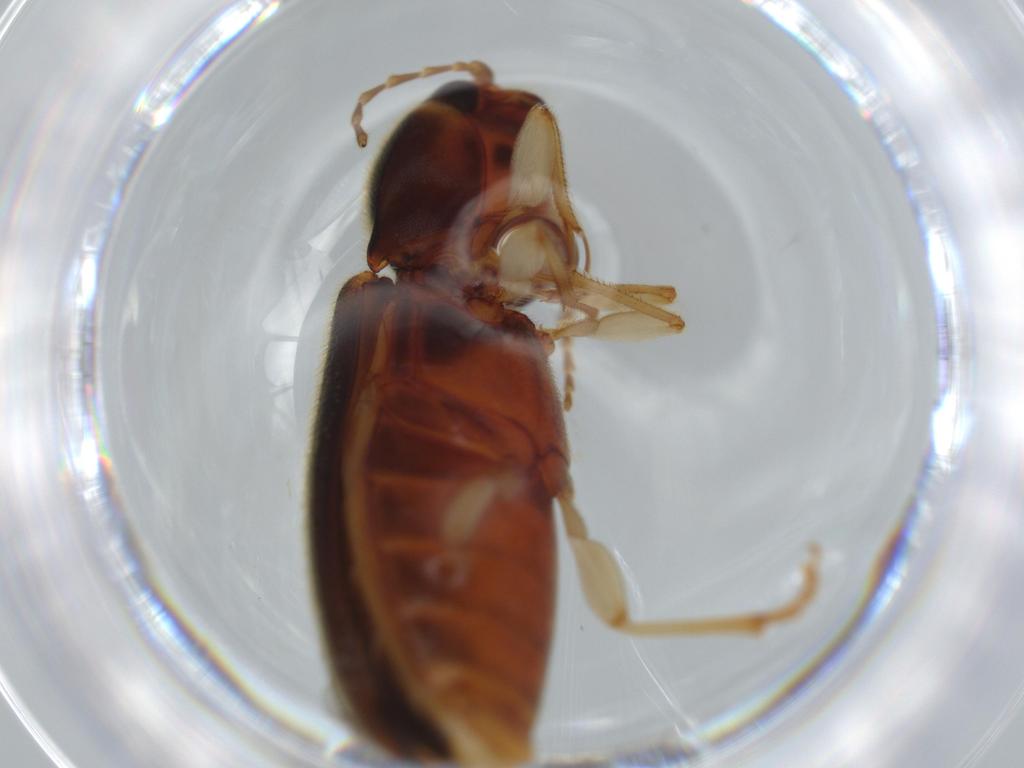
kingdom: Animalia
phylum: Arthropoda
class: Insecta
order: Coleoptera
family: Elateridae
